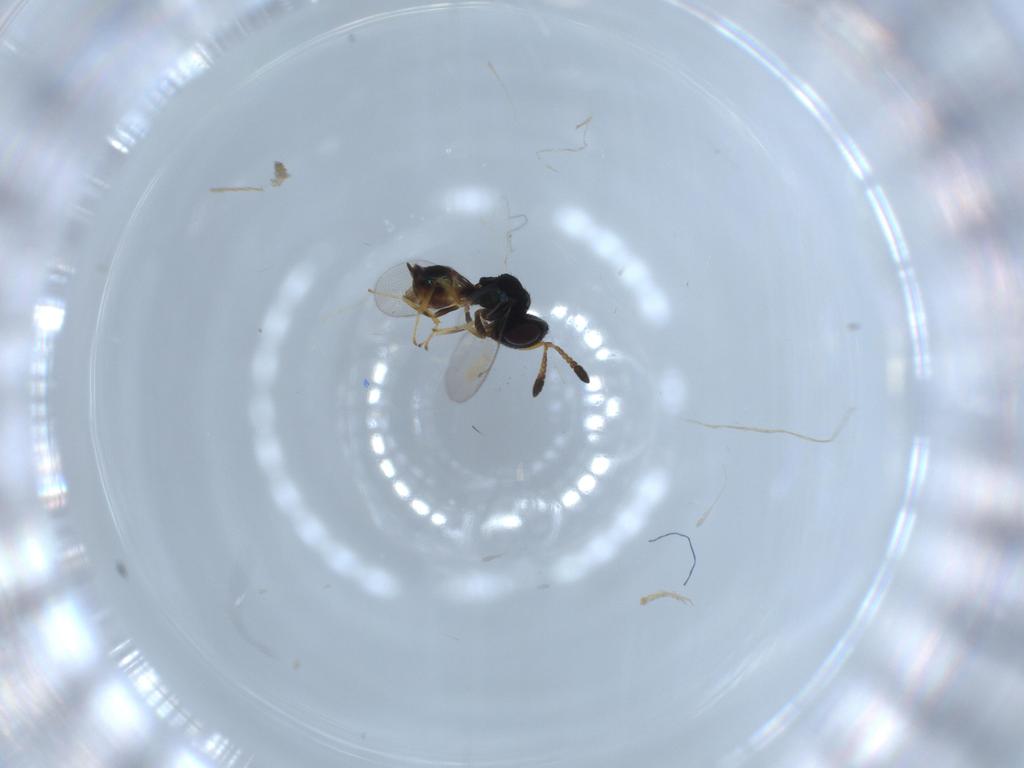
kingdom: Animalia
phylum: Arthropoda
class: Insecta
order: Hymenoptera
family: Pteromalidae
